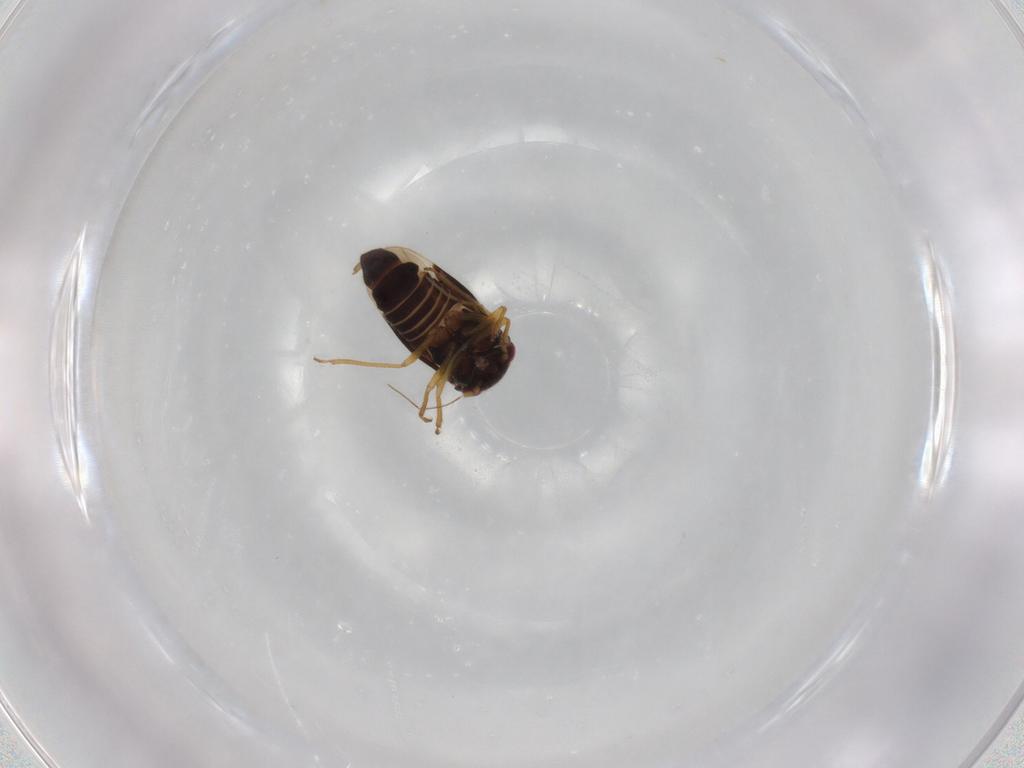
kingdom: Animalia
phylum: Arthropoda
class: Insecta
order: Hemiptera
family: Schizopteridae
